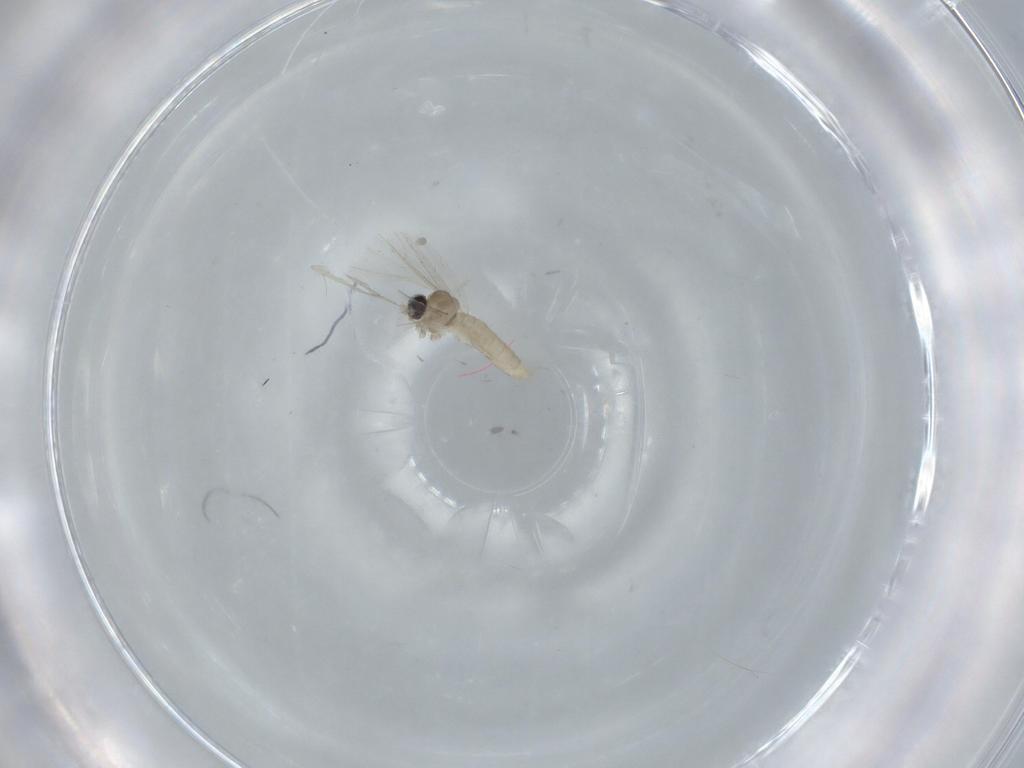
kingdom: Animalia
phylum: Arthropoda
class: Insecta
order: Diptera
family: Cecidomyiidae
